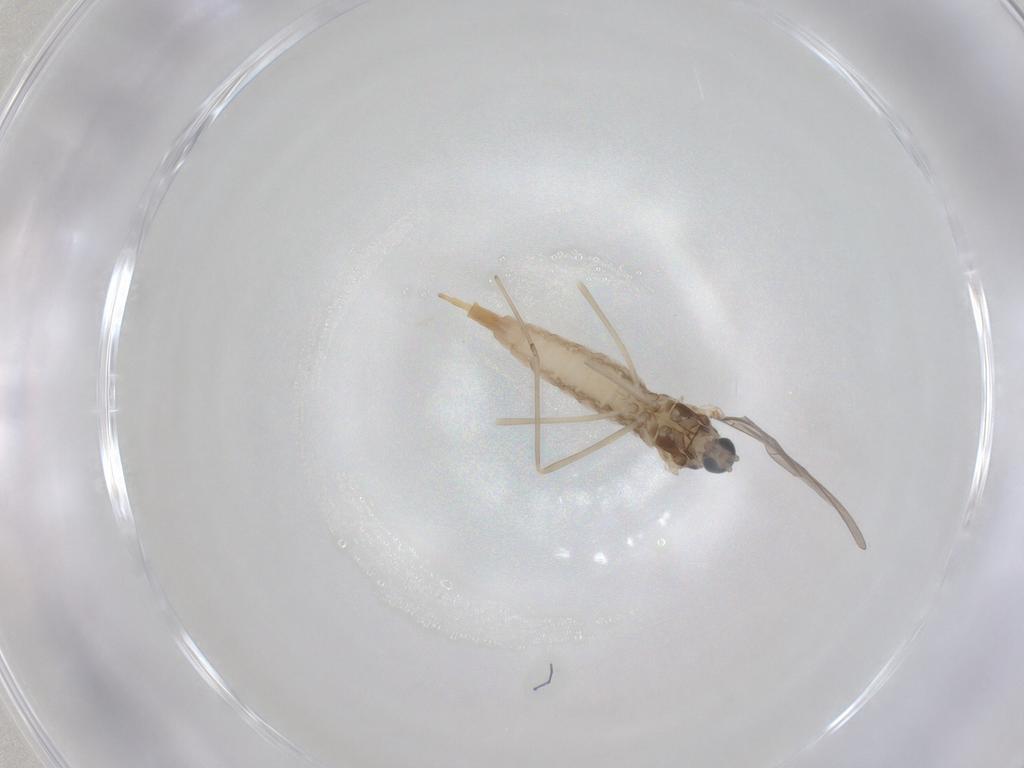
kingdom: Animalia
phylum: Arthropoda
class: Insecta
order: Diptera
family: Cecidomyiidae
